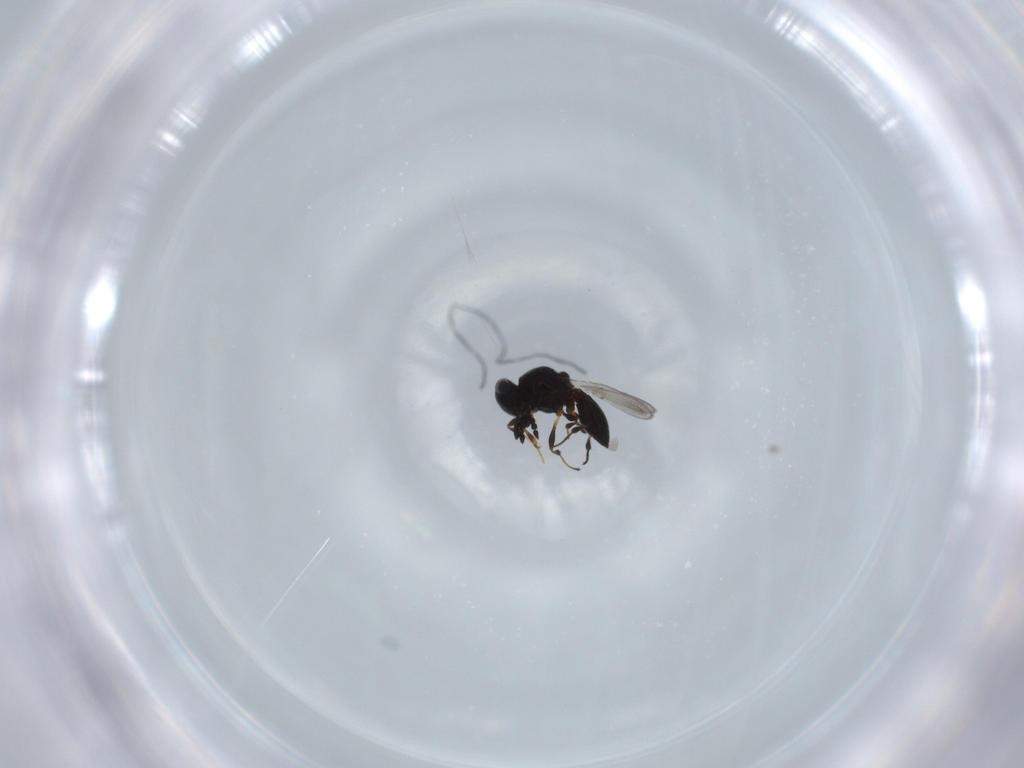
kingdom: Animalia
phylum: Arthropoda
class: Insecta
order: Hymenoptera
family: Platygastridae
